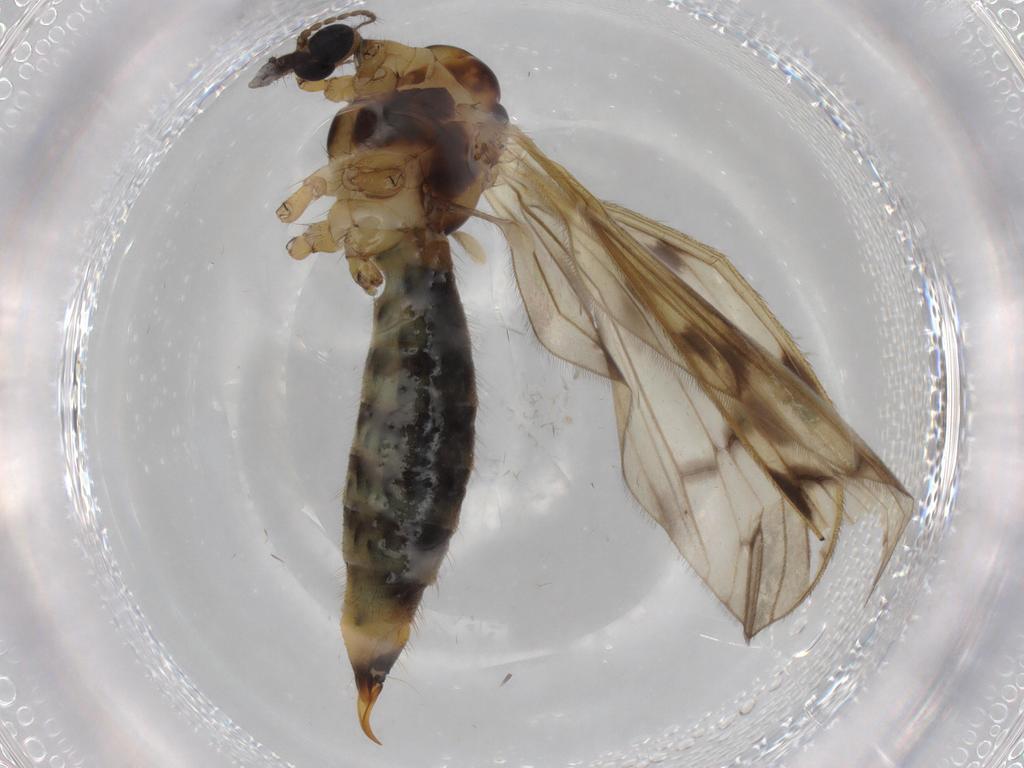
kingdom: Animalia
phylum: Arthropoda
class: Insecta
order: Diptera
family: Limoniidae
